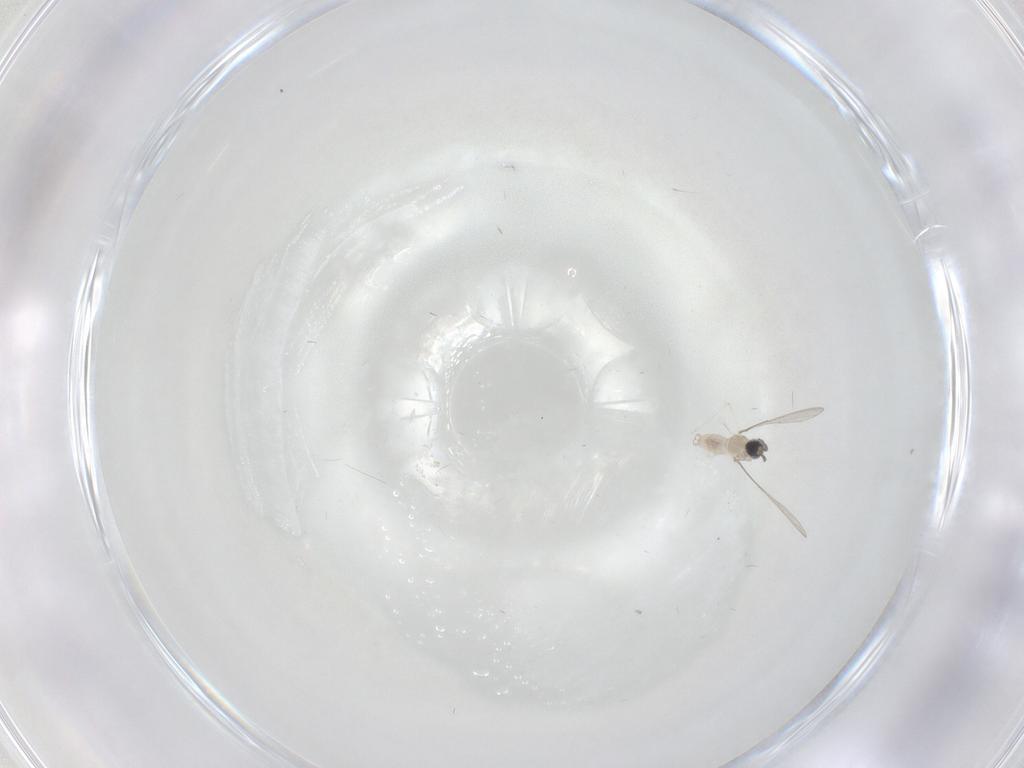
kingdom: Animalia
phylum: Arthropoda
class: Insecta
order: Diptera
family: Cecidomyiidae
